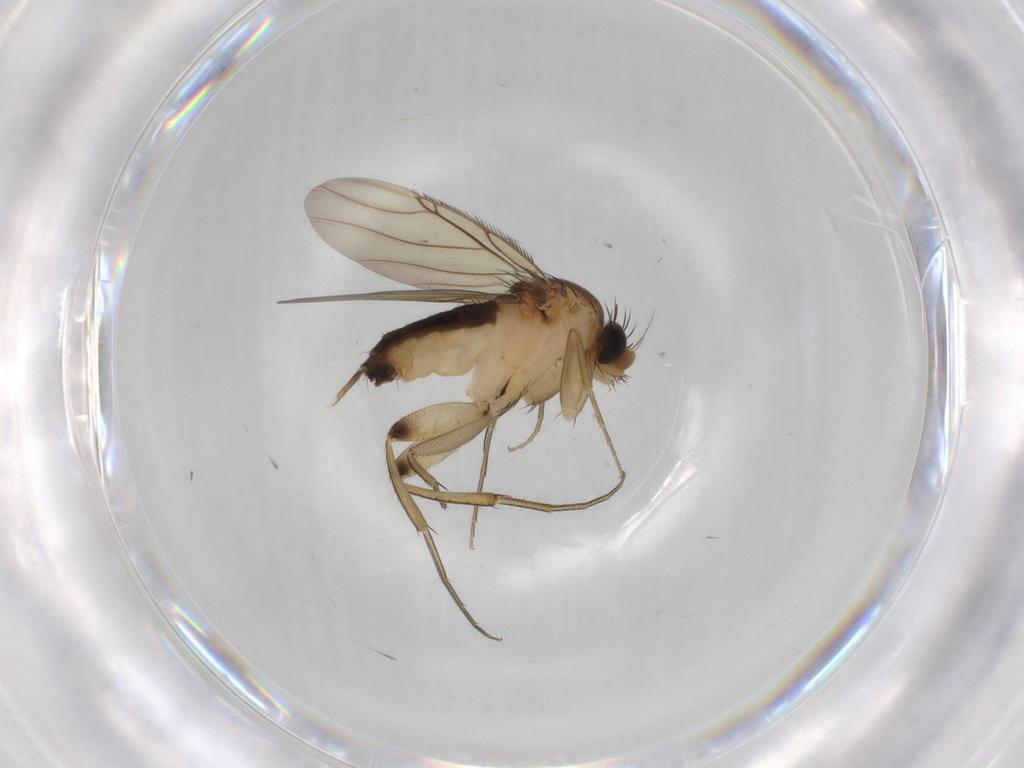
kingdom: Animalia
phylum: Arthropoda
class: Insecta
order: Diptera
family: Phoridae
